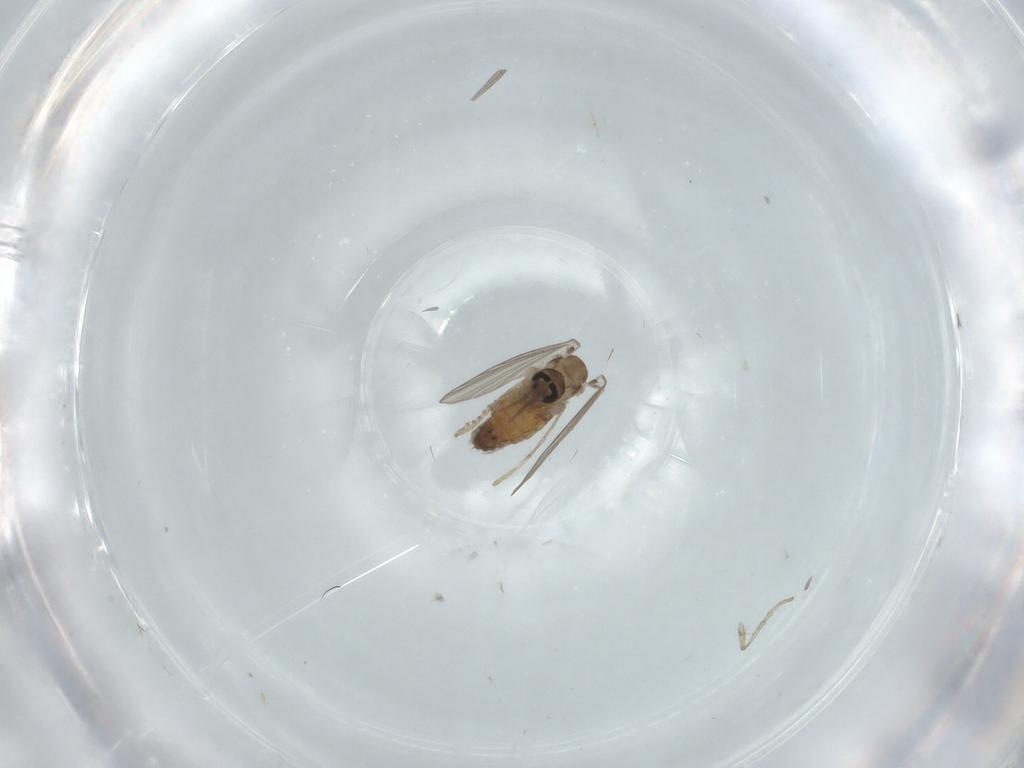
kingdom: Animalia
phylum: Arthropoda
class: Insecta
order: Diptera
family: Psychodidae
